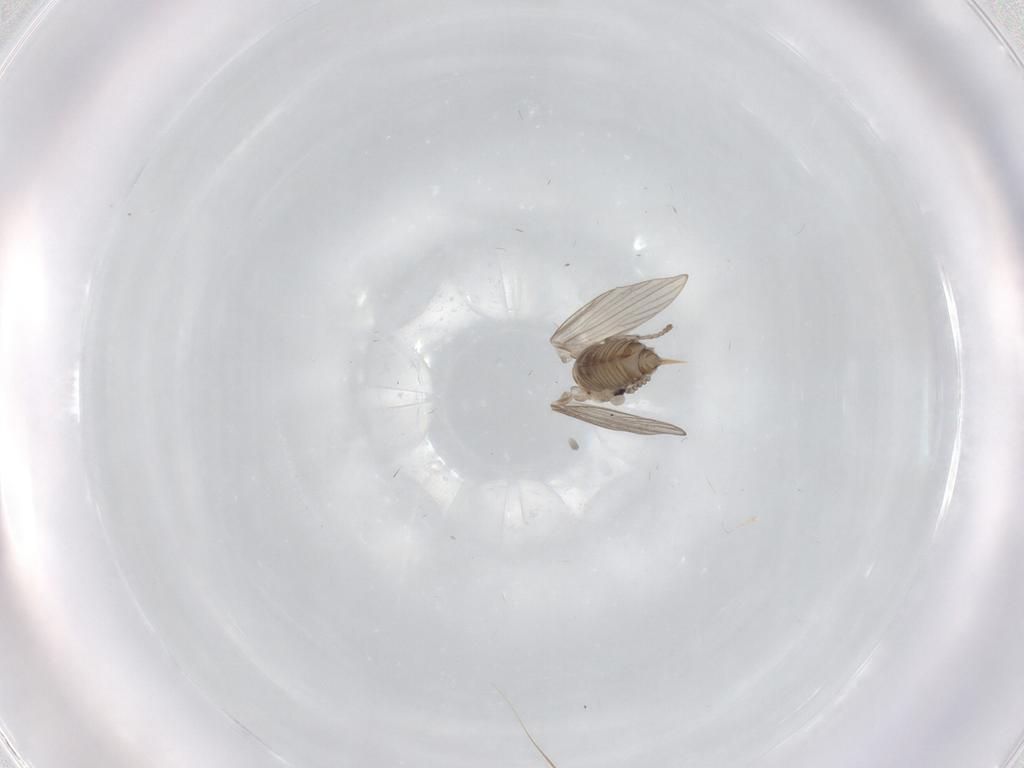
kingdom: Animalia
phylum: Arthropoda
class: Insecta
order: Diptera
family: Psychodidae
